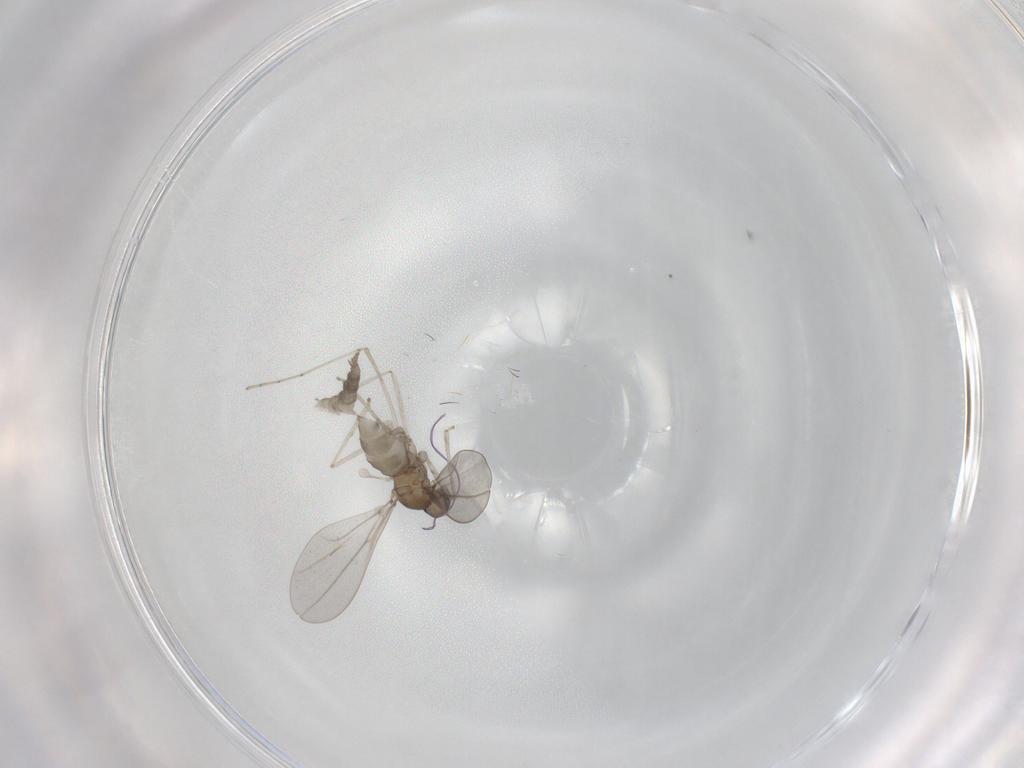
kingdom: Animalia
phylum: Arthropoda
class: Insecta
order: Diptera
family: Cecidomyiidae
